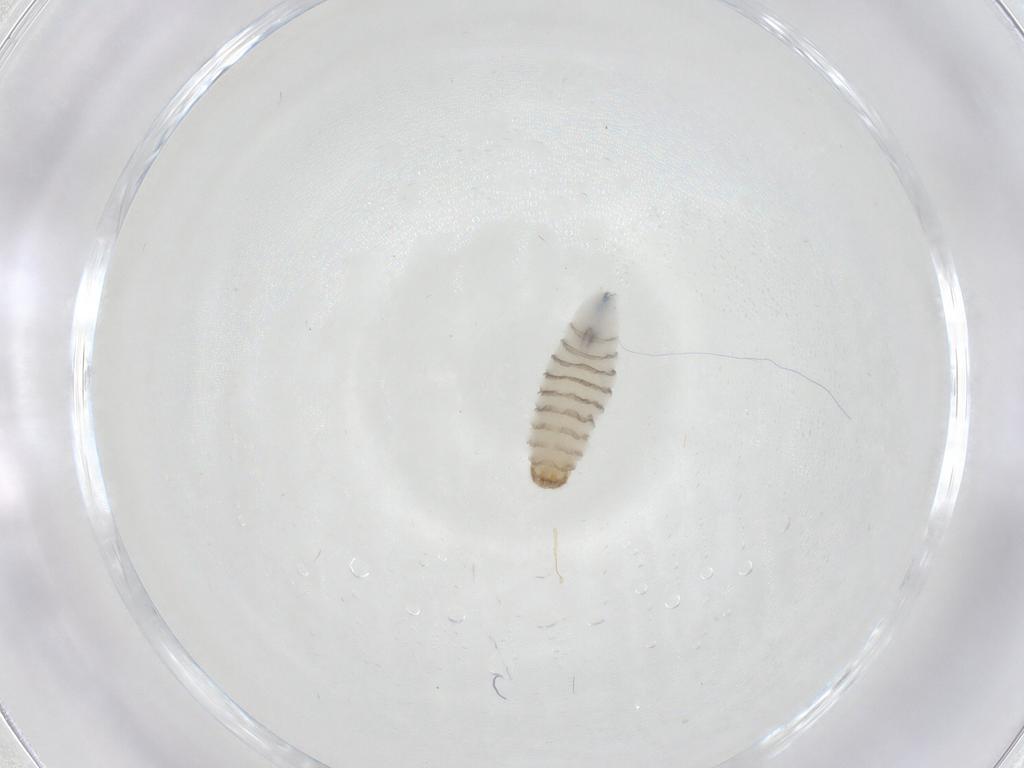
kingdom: Animalia
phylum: Arthropoda
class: Insecta
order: Diptera
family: Sarcophagidae
